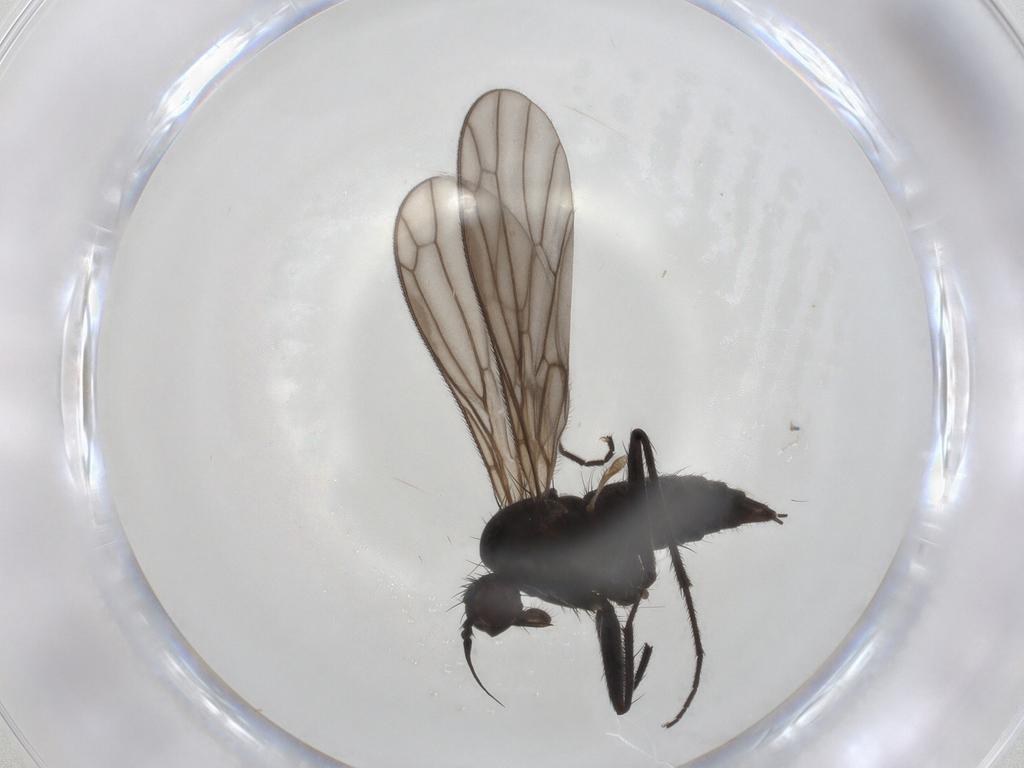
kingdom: Animalia
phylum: Arthropoda
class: Insecta
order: Diptera
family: Empididae
